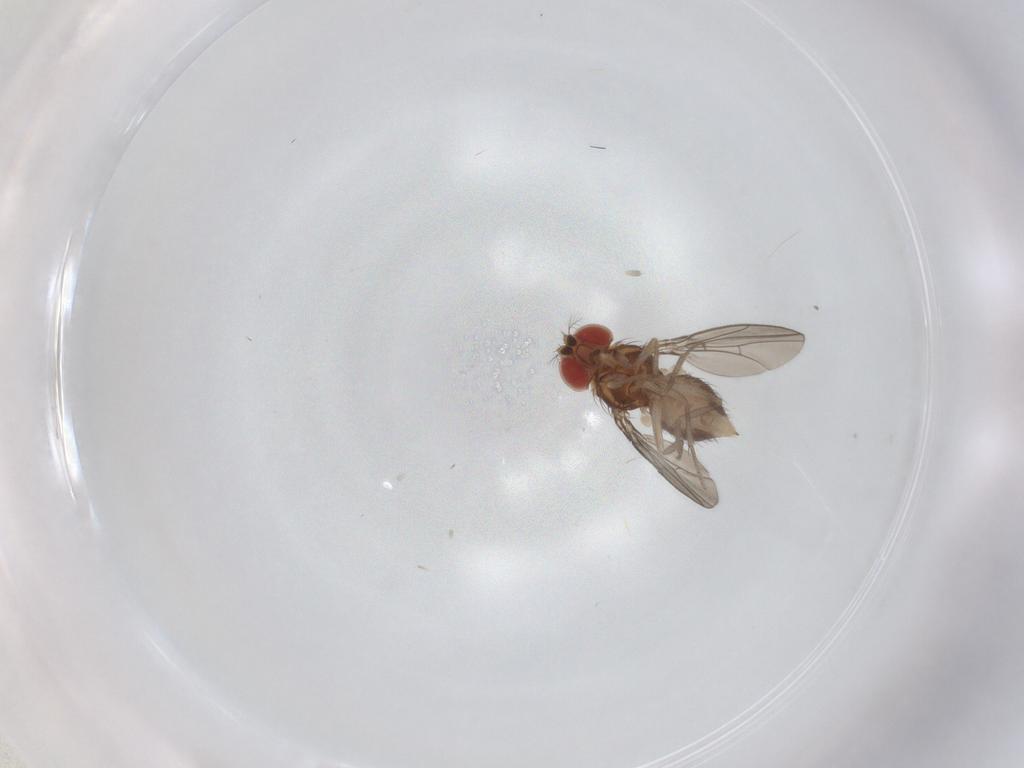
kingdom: Animalia
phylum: Arthropoda
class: Insecta
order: Diptera
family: Drosophilidae
